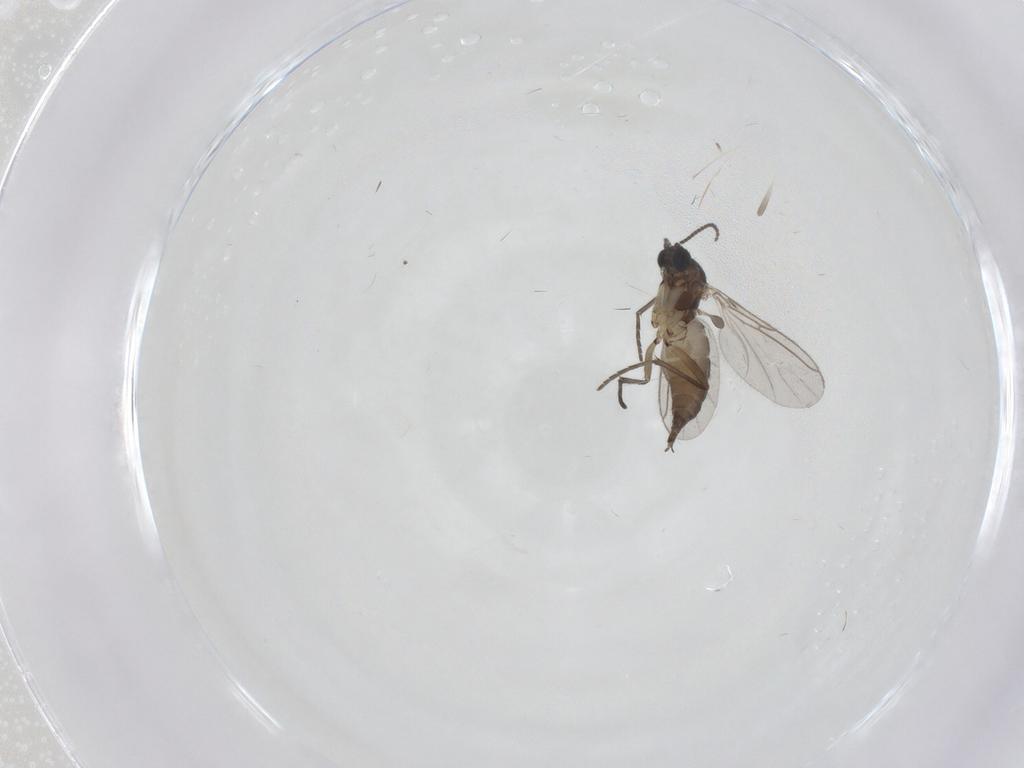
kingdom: Animalia
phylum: Arthropoda
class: Insecta
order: Diptera
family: Sciaridae
